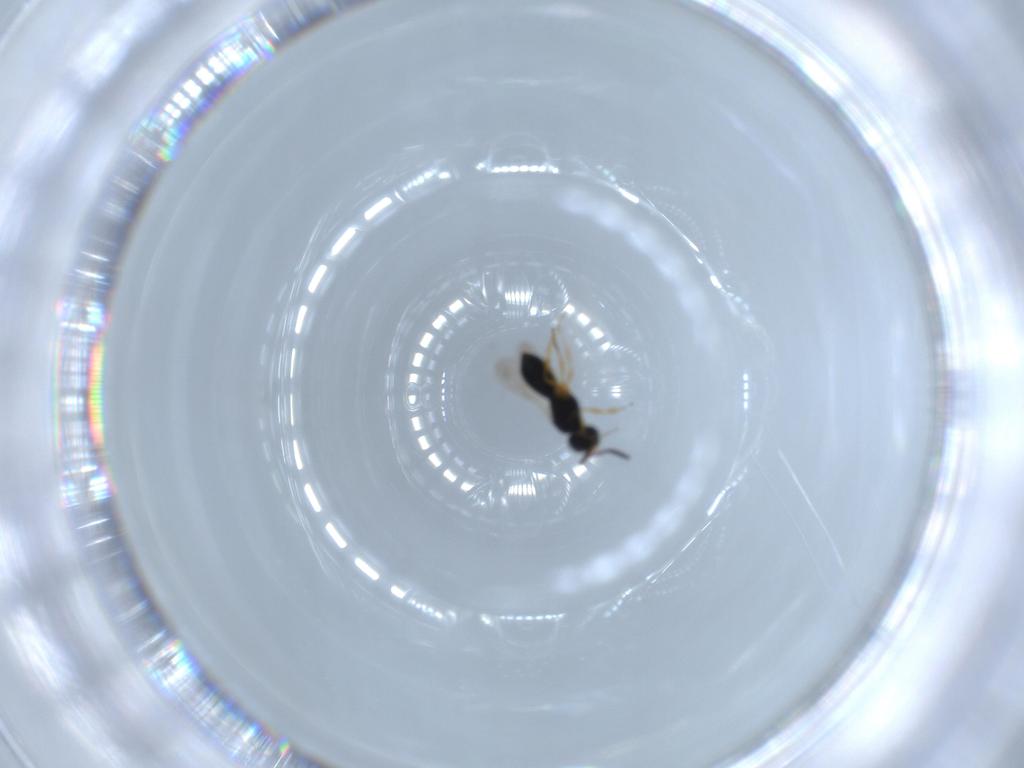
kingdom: Animalia
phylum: Arthropoda
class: Insecta
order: Hymenoptera
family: Scelionidae
